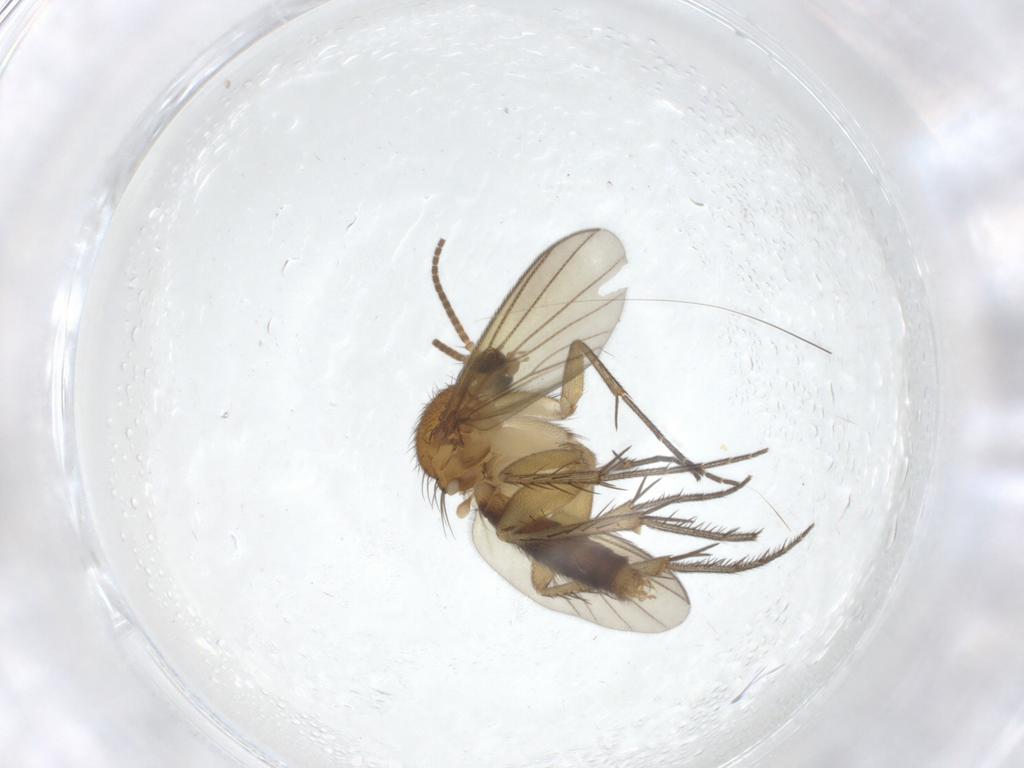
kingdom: Animalia
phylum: Arthropoda
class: Insecta
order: Diptera
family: Mycetophilidae
